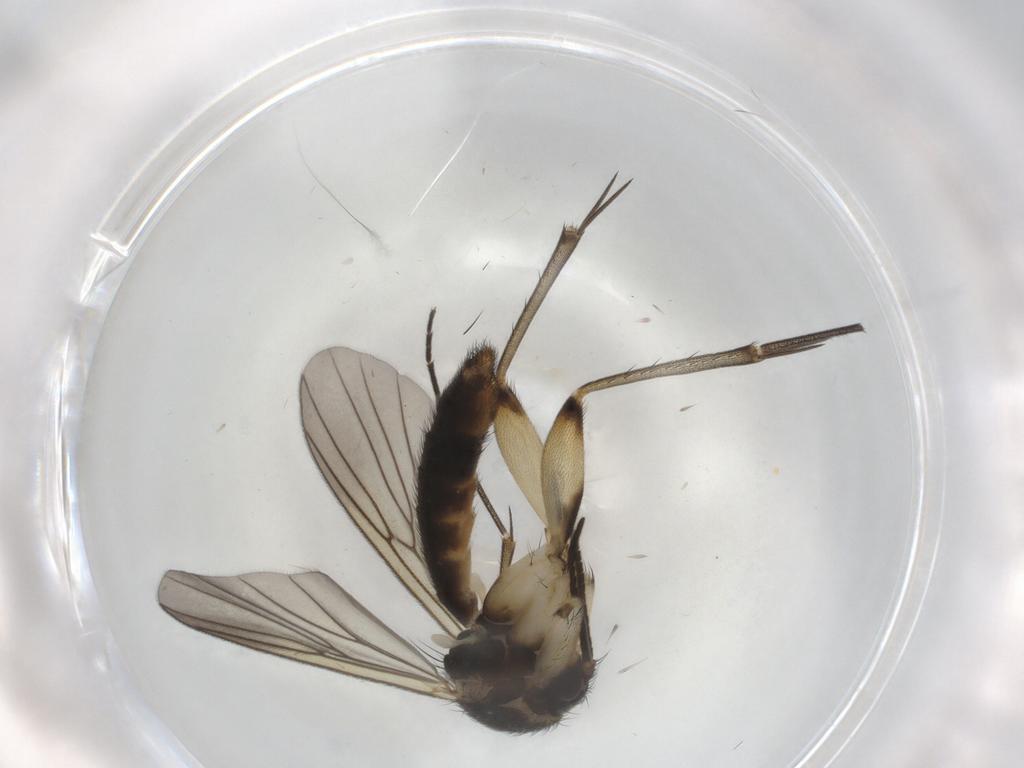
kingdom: Animalia
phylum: Arthropoda
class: Insecta
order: Diptera
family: Mycetophilidae
